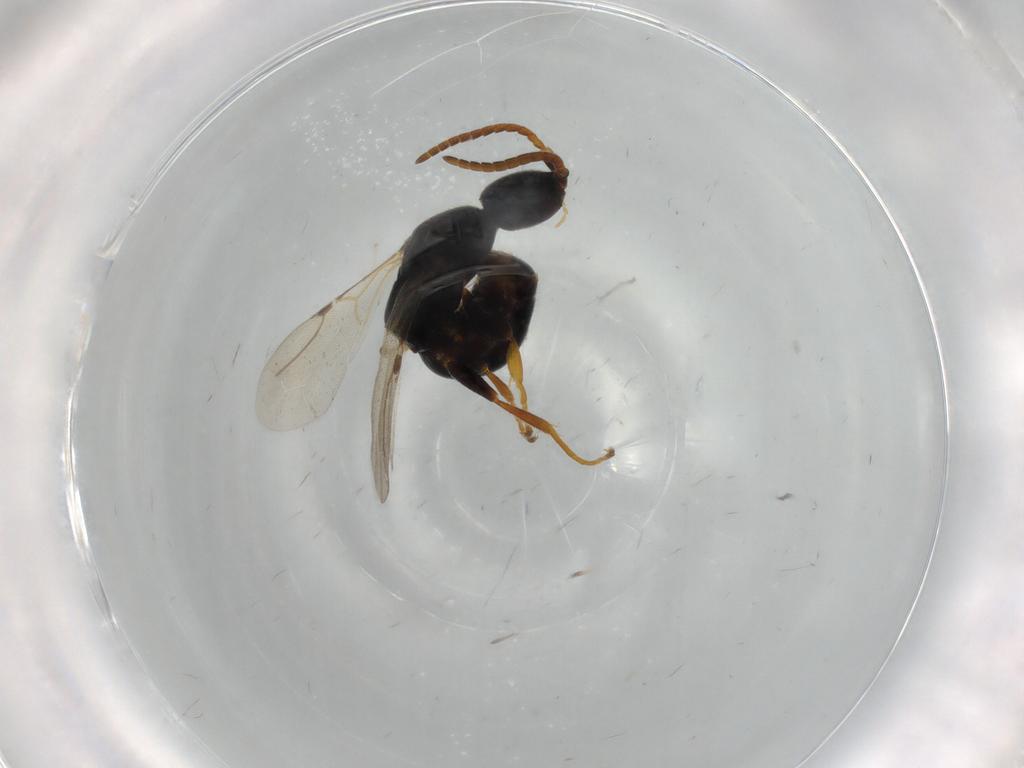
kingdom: Animalia
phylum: Arthropoda
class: Insecta
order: Hymenoptera
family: Bethylidae
